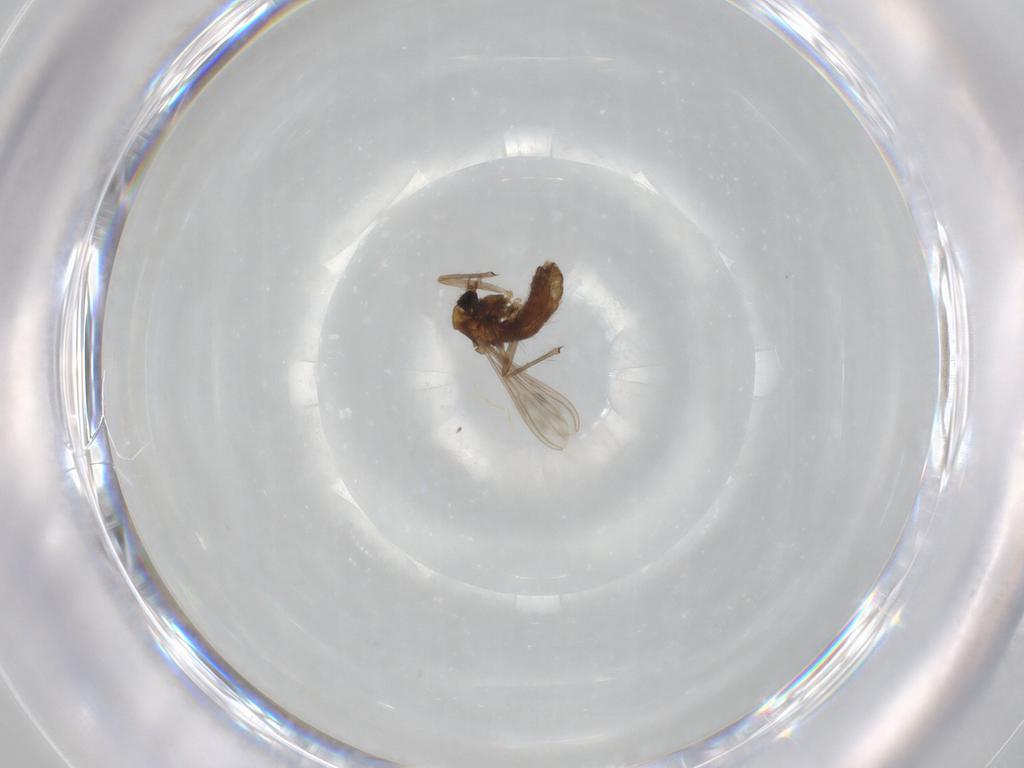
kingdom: Animalia
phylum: Arthropoda
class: Insecta
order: Diptera
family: Chironomidae
